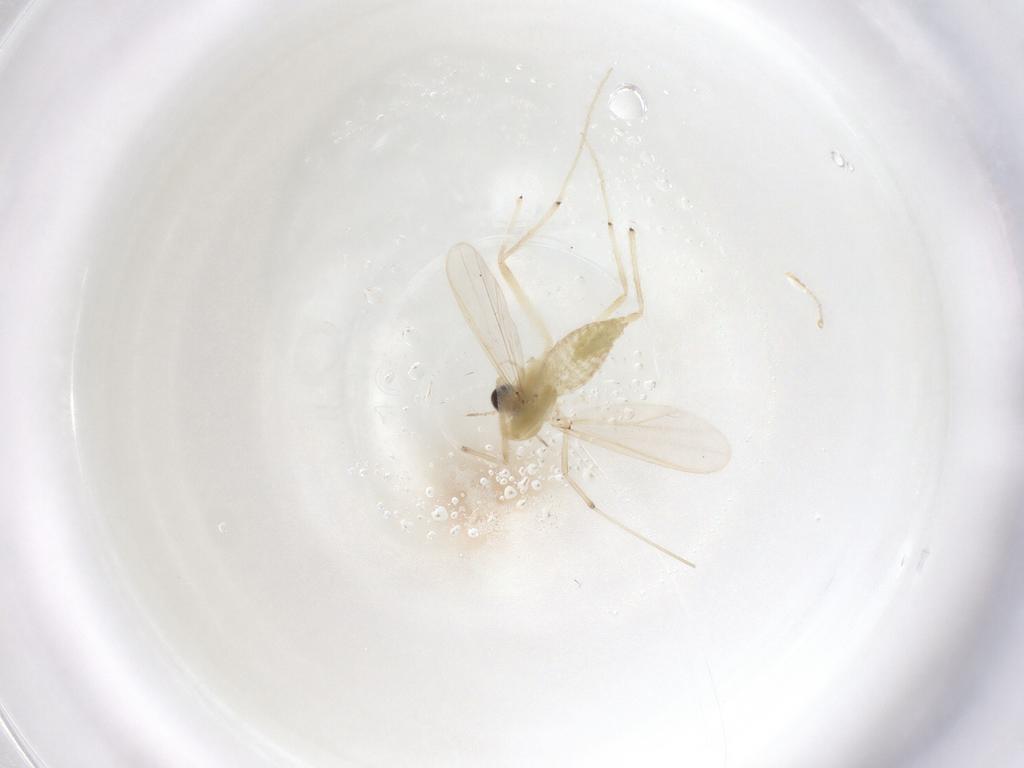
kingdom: Animalia
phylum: Arthropoda
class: Insecta
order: Diptera
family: Chironomidae
